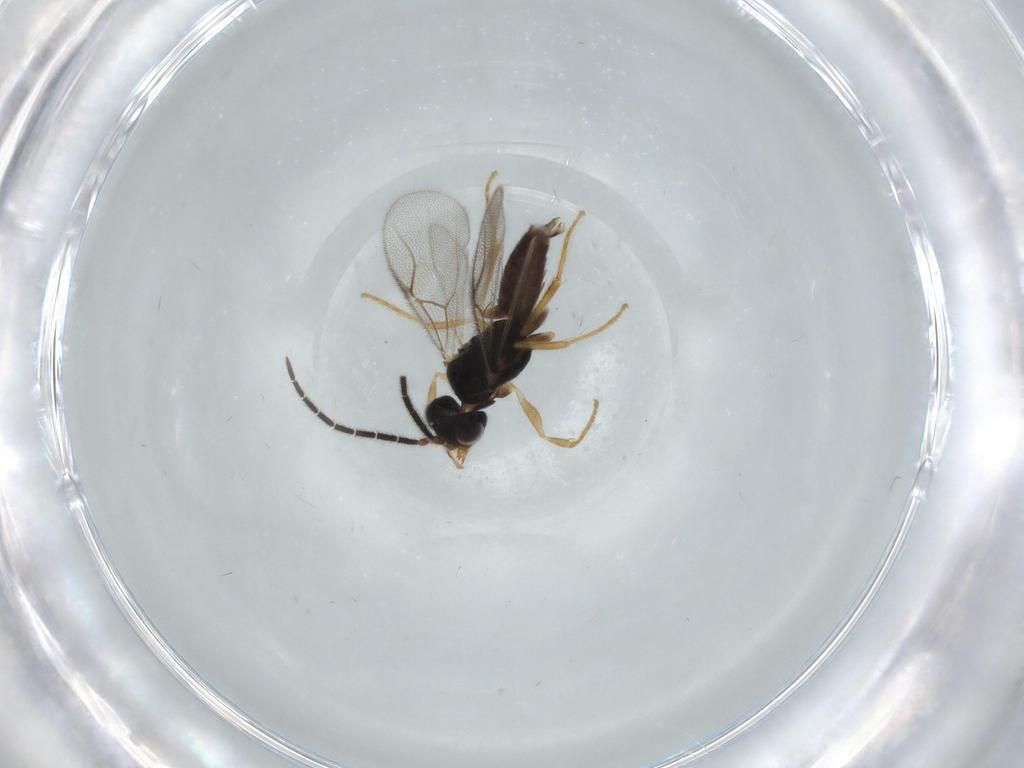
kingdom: Animalia
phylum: Arthropoda
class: Insecta
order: Hymenoptera
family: Dryinidae
